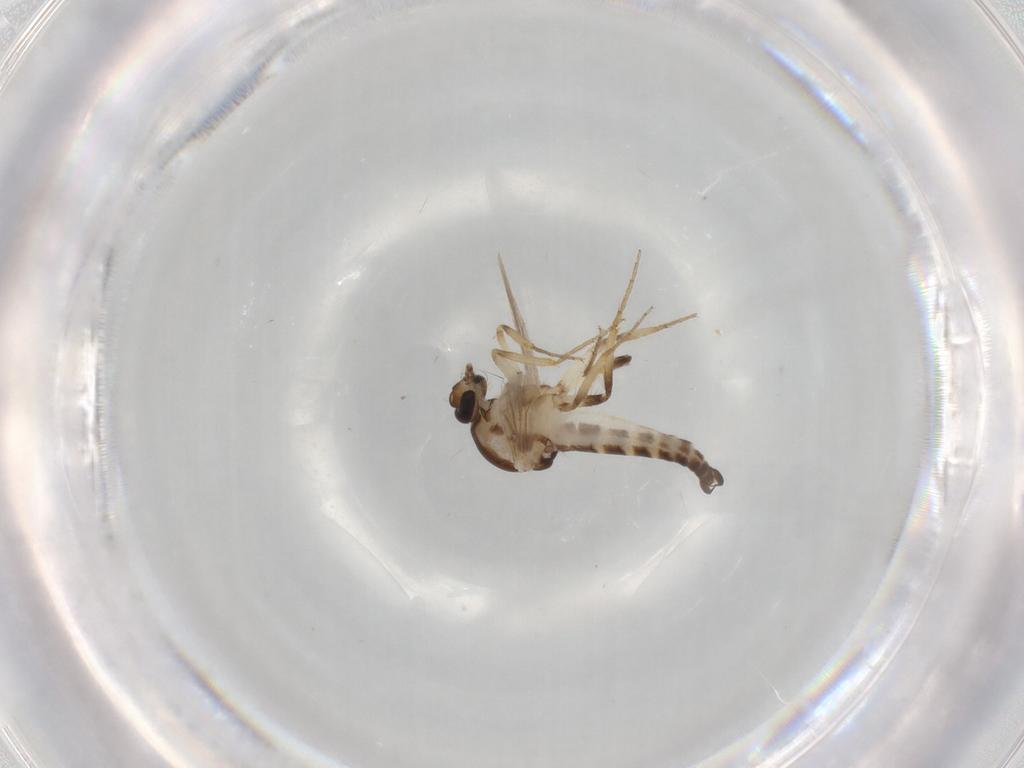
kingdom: Animalia
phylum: Arthropoda
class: Insecta
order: Diptera
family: Ceratopogonidae
